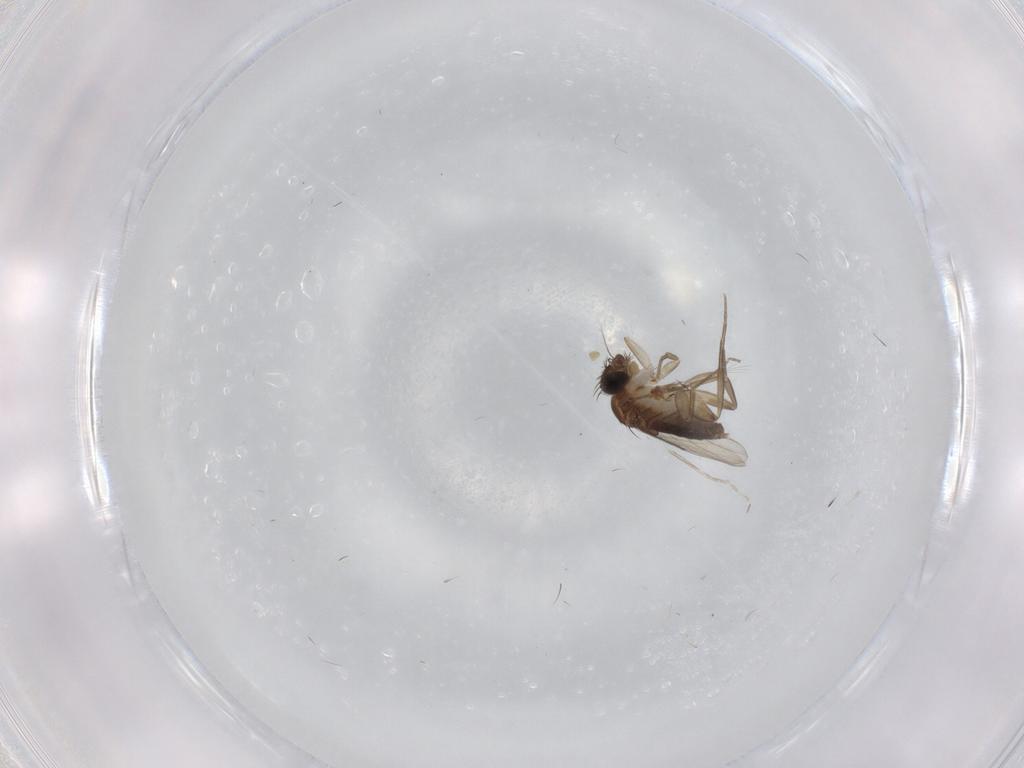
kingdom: Animalia
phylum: Arthropoda
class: Insecta
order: Diptera
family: Phoridae
